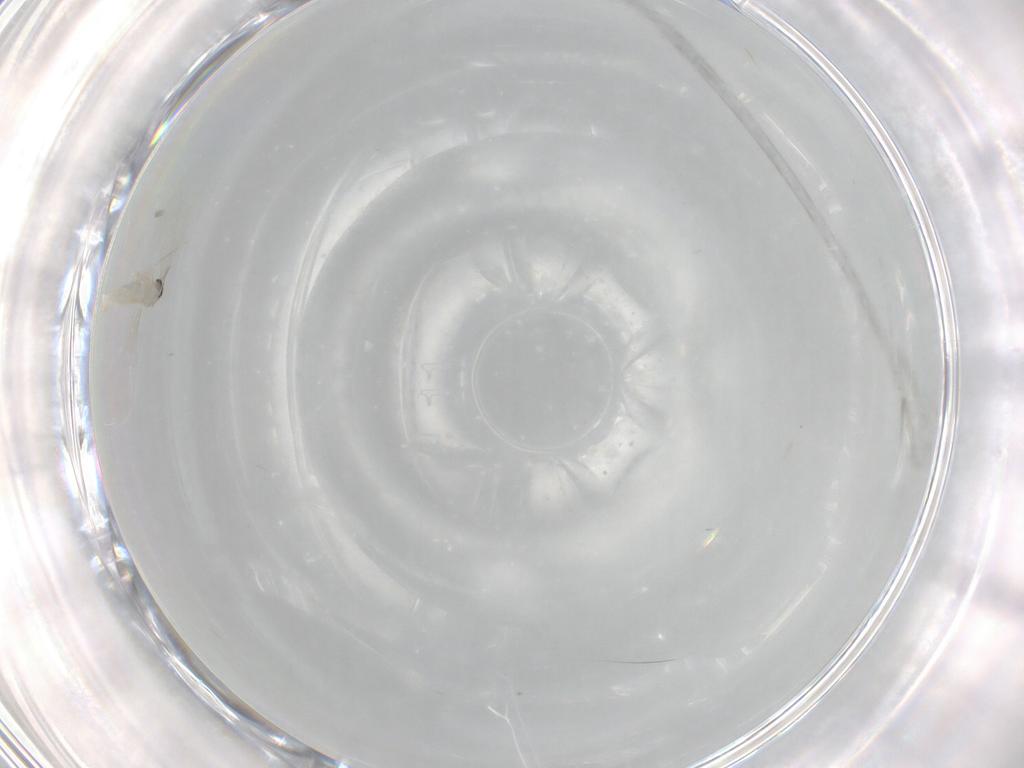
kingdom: Animalia
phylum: Arthropoda
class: Insecta
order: Diptera
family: Cecidomyiidae
